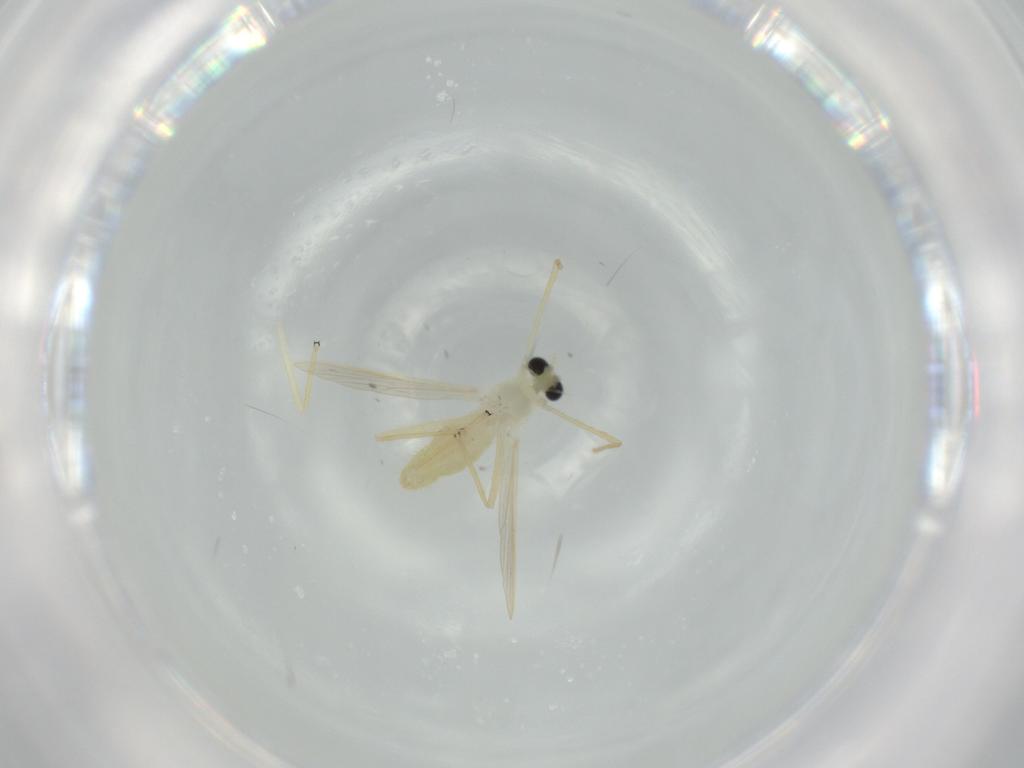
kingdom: Animalia
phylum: Arthropoda
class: Insecta
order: Diptera
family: Chironomidae
